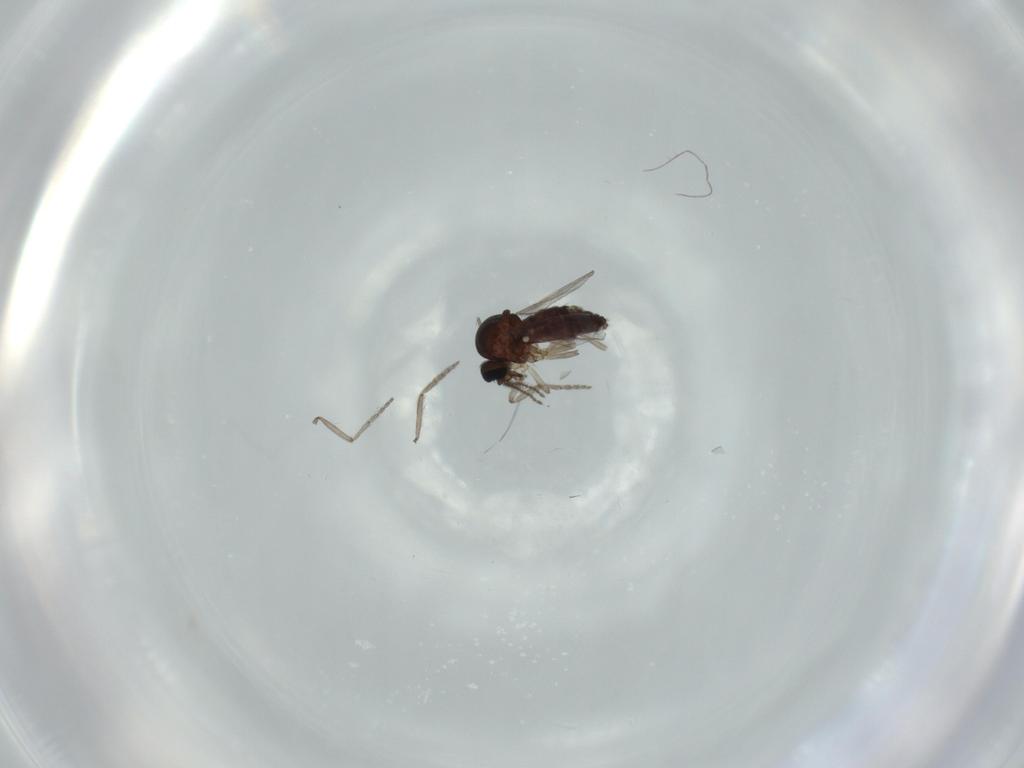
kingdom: Animalia
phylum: Arthropoda
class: Insecta
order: Diptera
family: Ceratopogonidae
